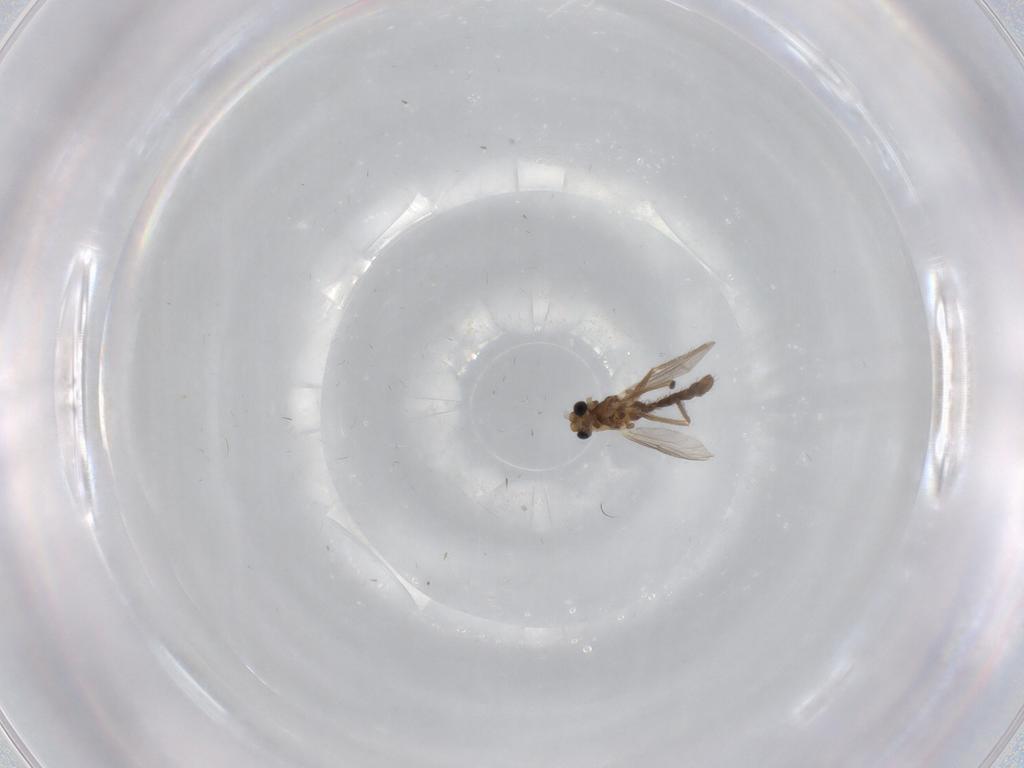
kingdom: Animalia
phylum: Arthropoda
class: Insecta
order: Diptera
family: Chironomidae
